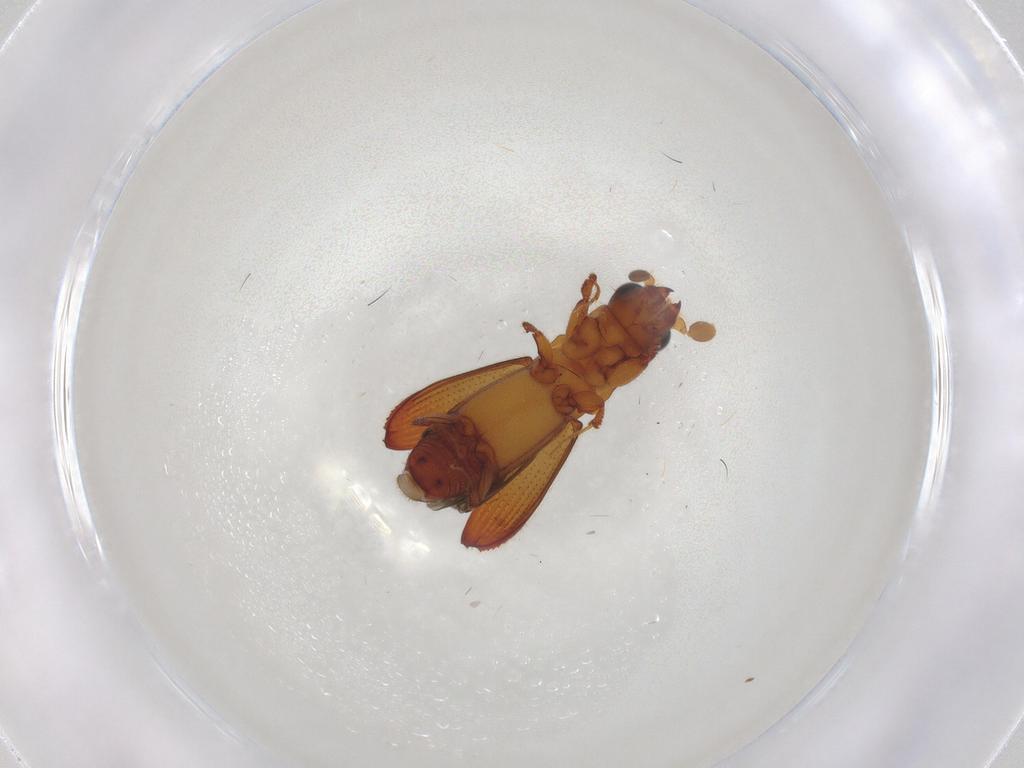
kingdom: Animalia
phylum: Arthropoda
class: Insecta
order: Coleoptera
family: Curculionidae
